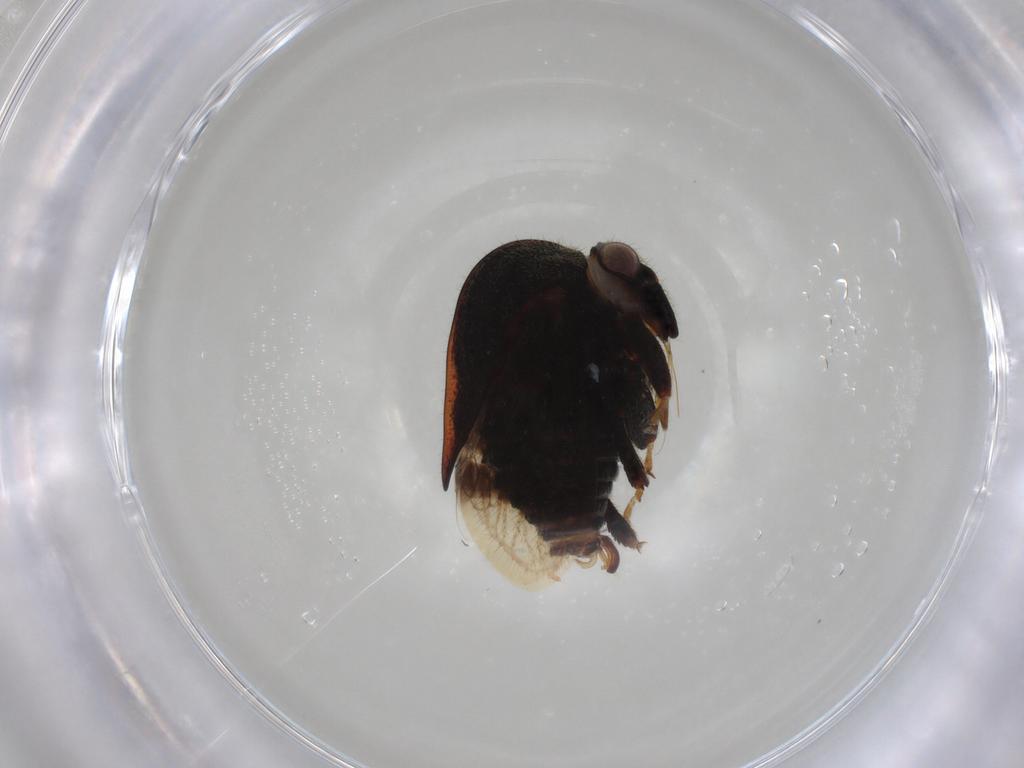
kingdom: Animalia
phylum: Arthropoda
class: Insecta
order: Hemiptera
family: Membracidae
